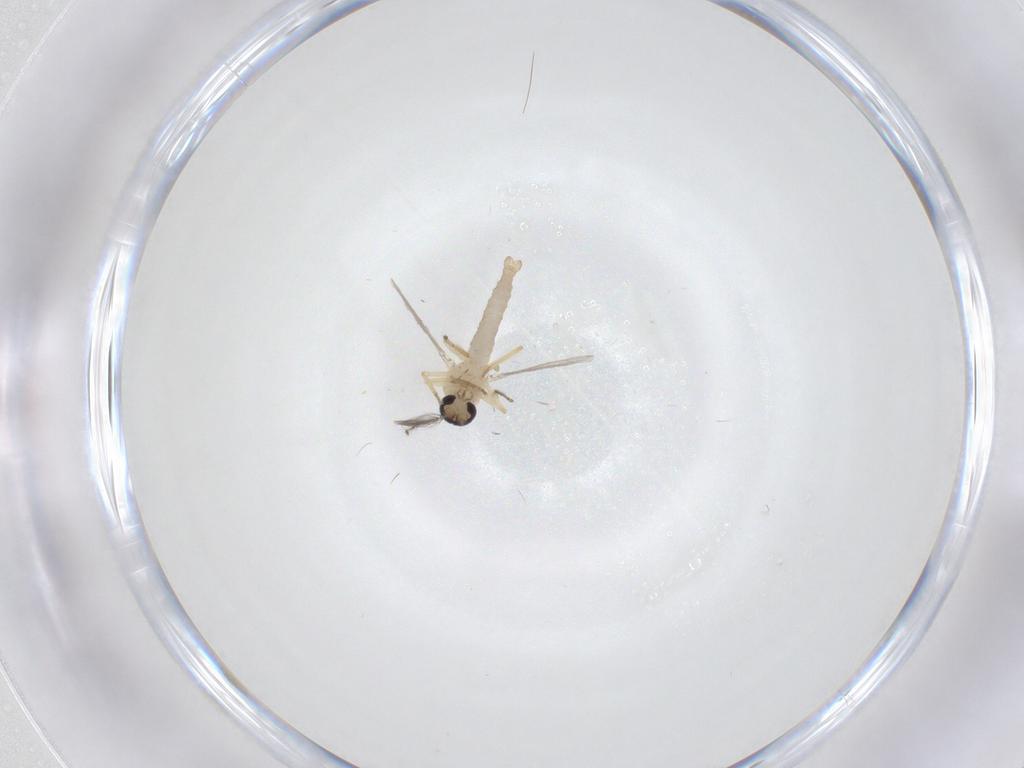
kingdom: Animalia
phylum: Arthropoda
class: Insecta
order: Diptera
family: Ceratopogonidae
